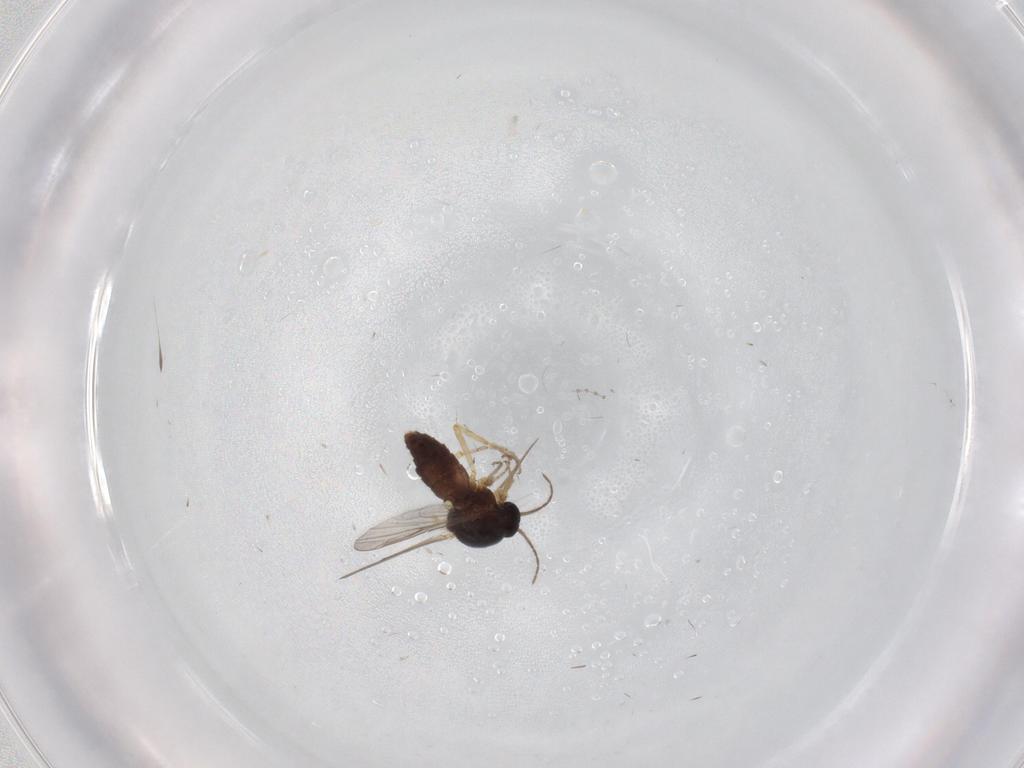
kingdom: Animalia
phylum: Arthropoda
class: Insecta
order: Diptera
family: Ceratopogonidae
